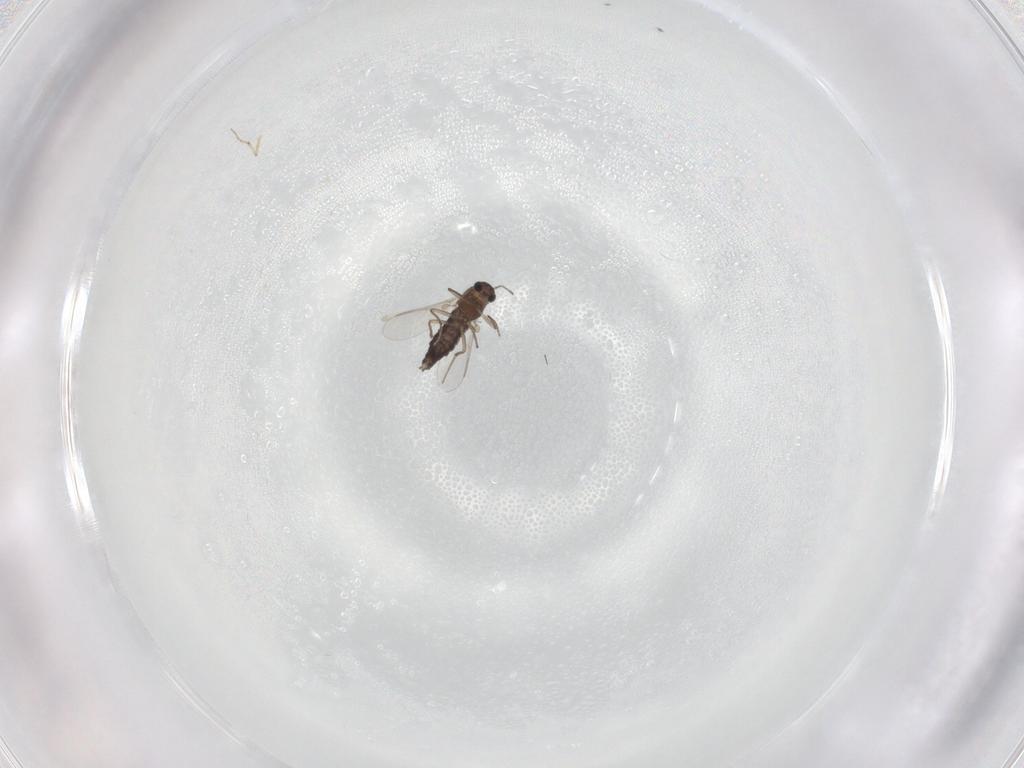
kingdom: Animalia
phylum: Arthropoda
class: Insecta
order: Diptera
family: Chironomidae
